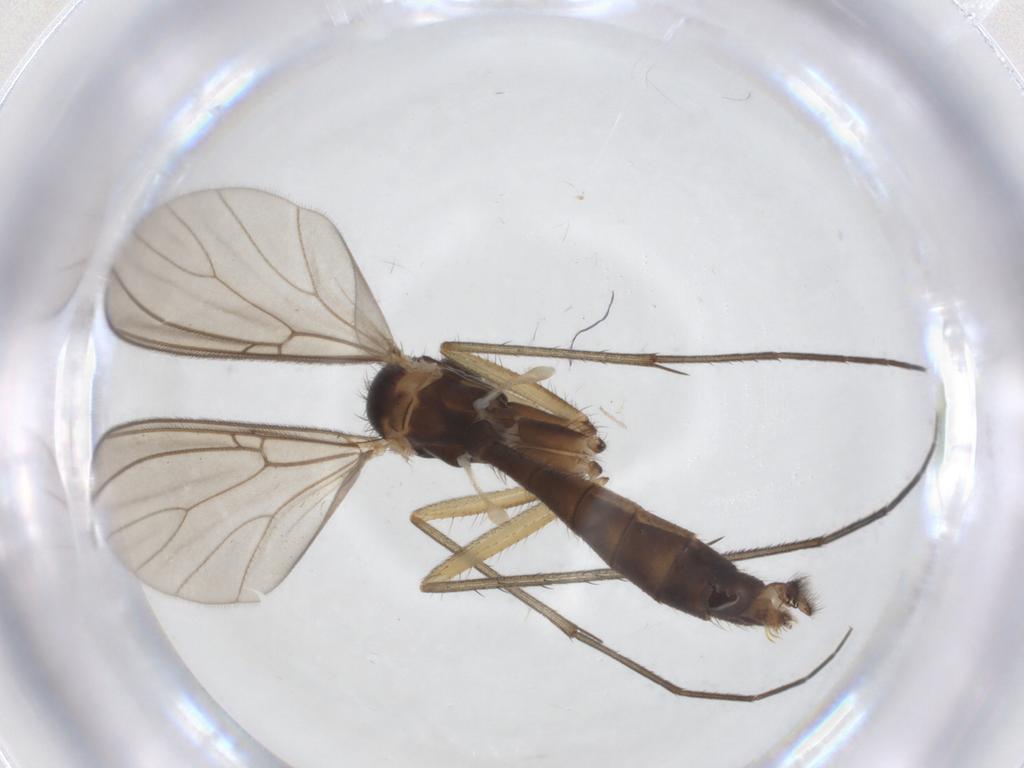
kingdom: Animalia
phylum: Arthropoda
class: Insecta
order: Diptera
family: Mycetophilidae
